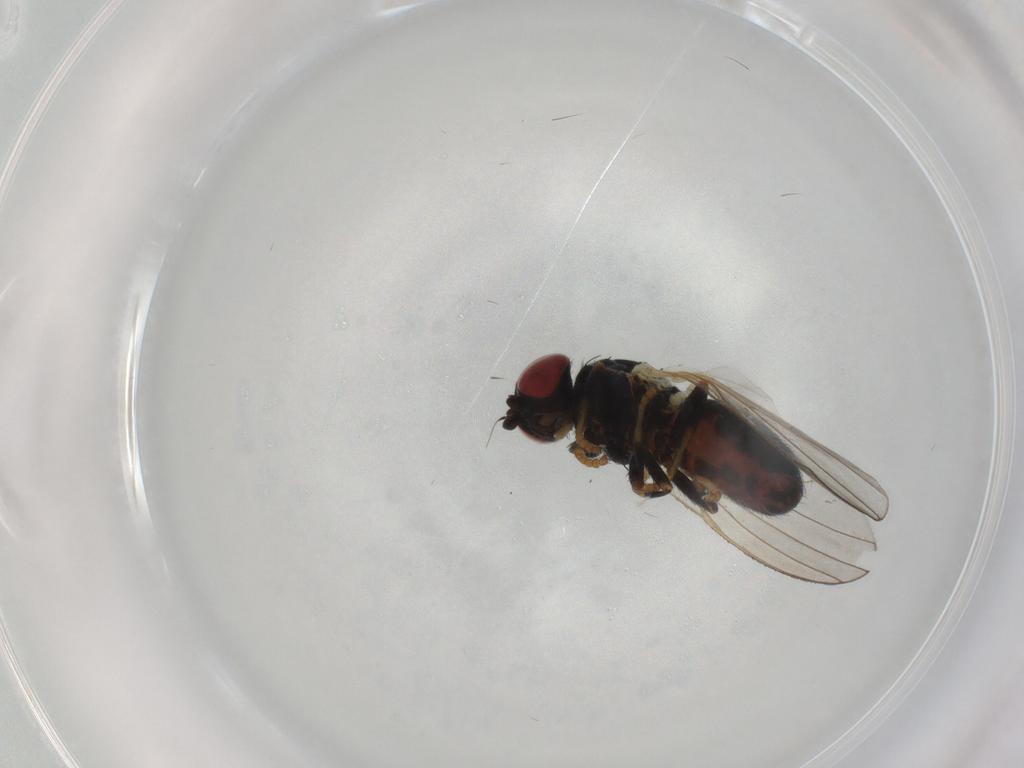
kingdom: Animalia
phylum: Arthropoda
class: Insecta
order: Diptera
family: Chamaemyiidae
